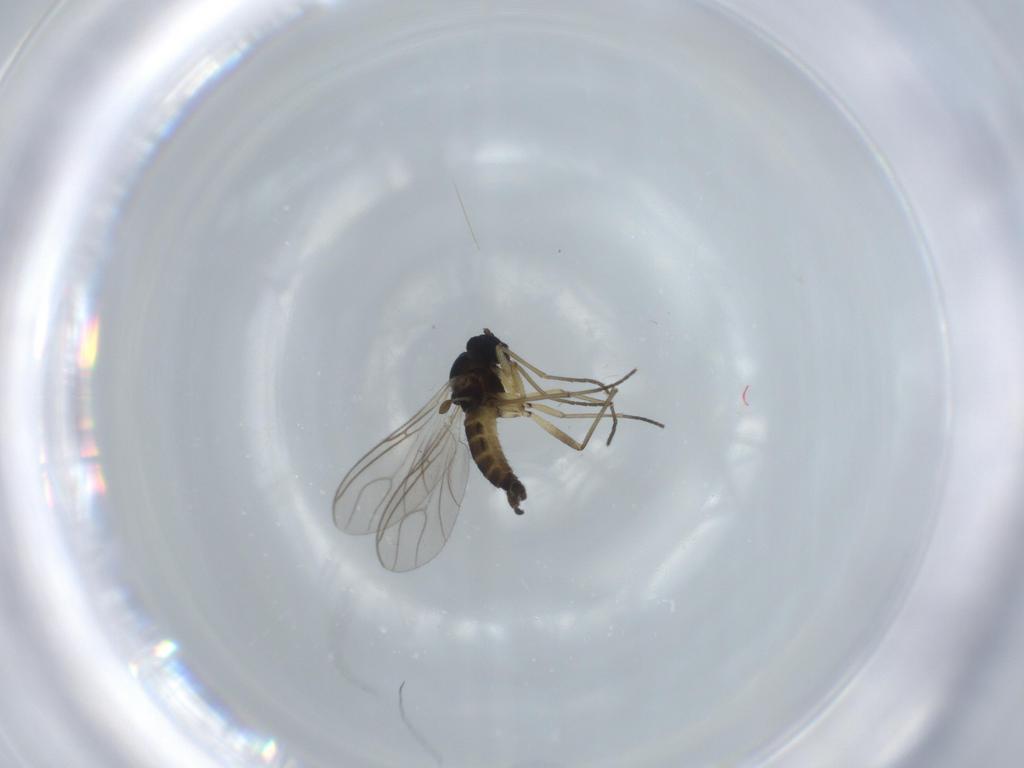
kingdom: Animalia
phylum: Arthropoda
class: Insecta
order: Diptera
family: Sciaridae
